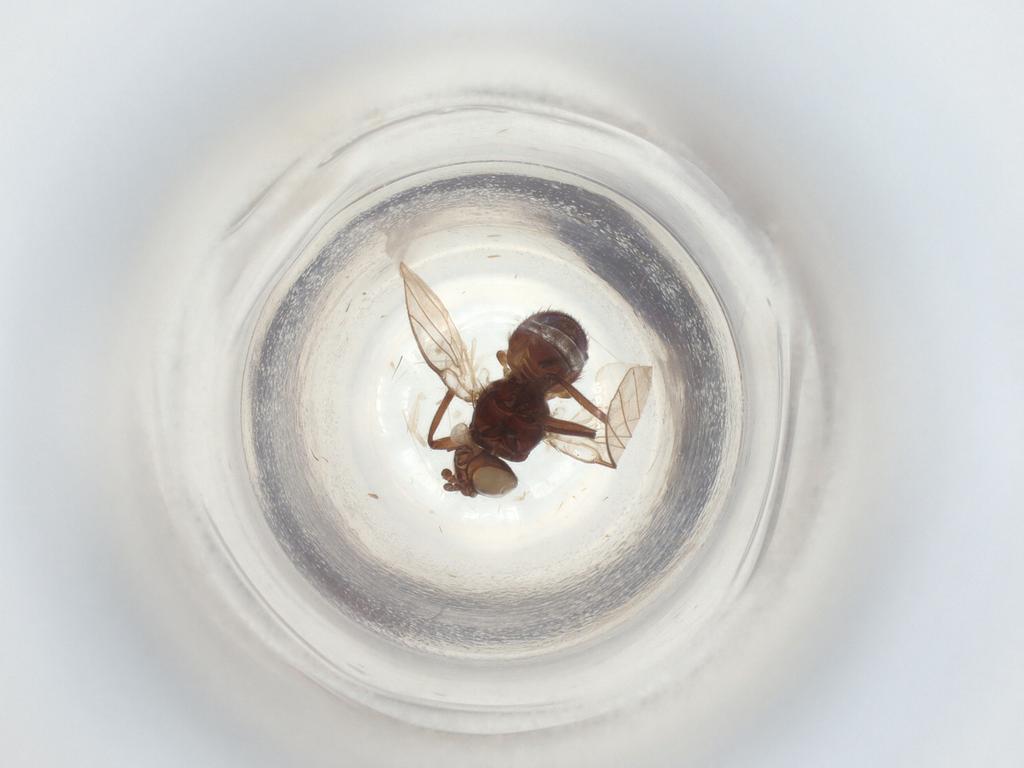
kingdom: Animalia
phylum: Arthropoda
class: Insecta
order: Diptera
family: Agromyzidae
